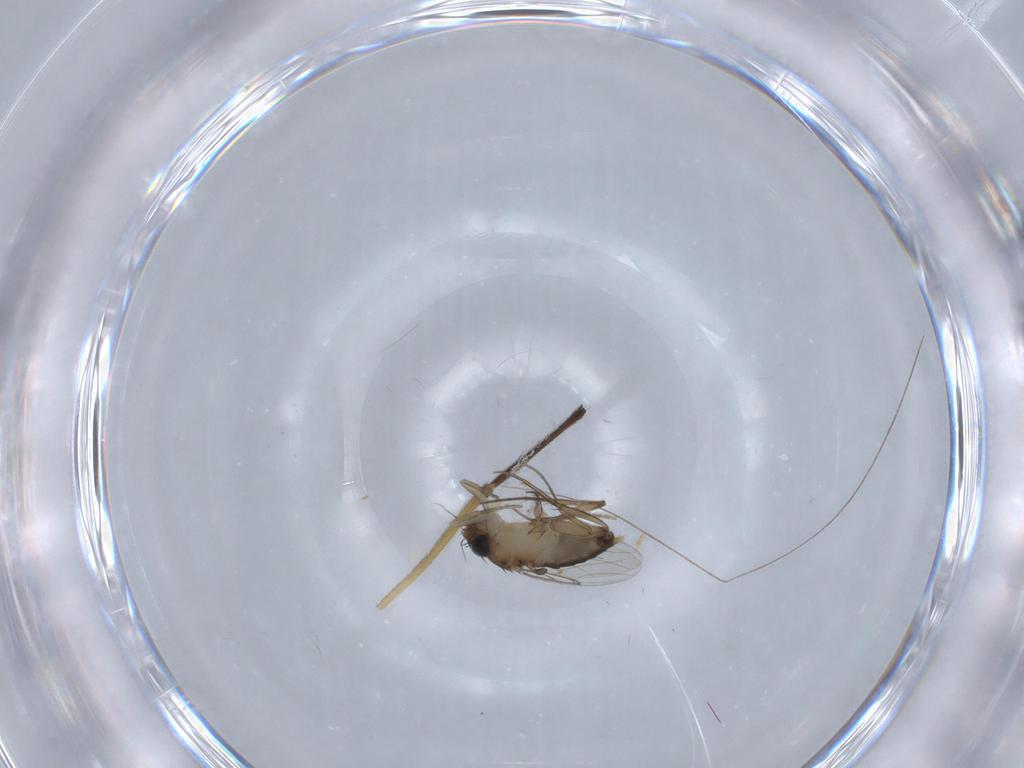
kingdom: Animalia
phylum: Arthropoda
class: Insecta
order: Diptera
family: Phoridae
